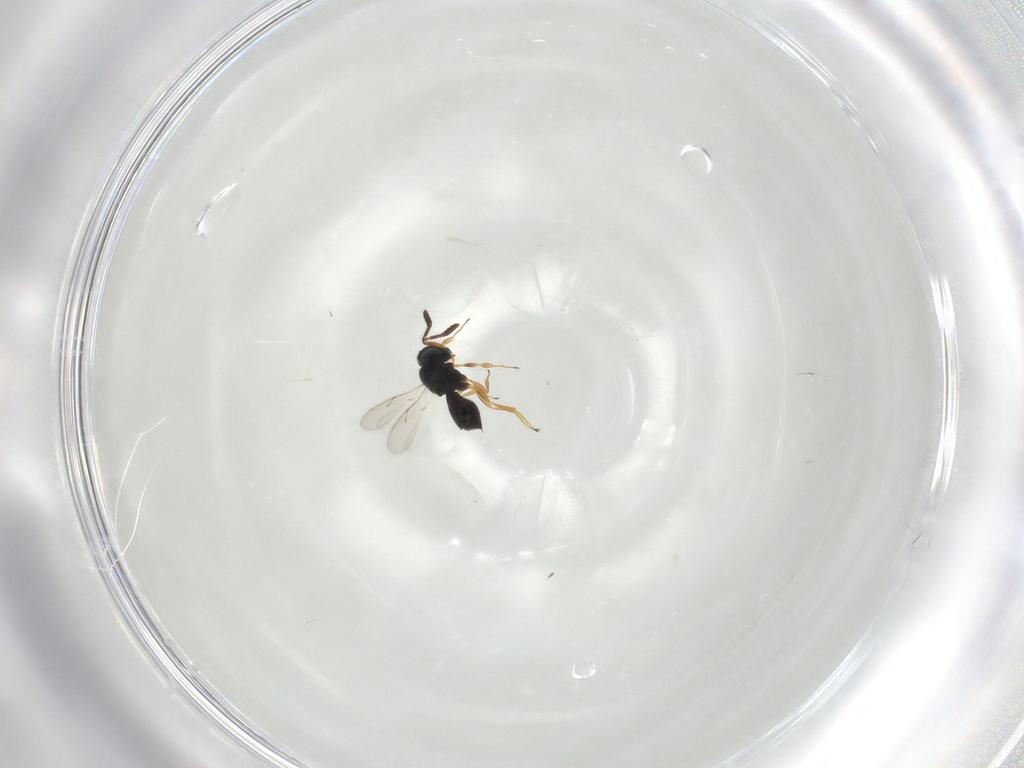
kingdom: Animalia
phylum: Arthropoda
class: Insecta
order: Hymenoptera
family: Scelionidae
